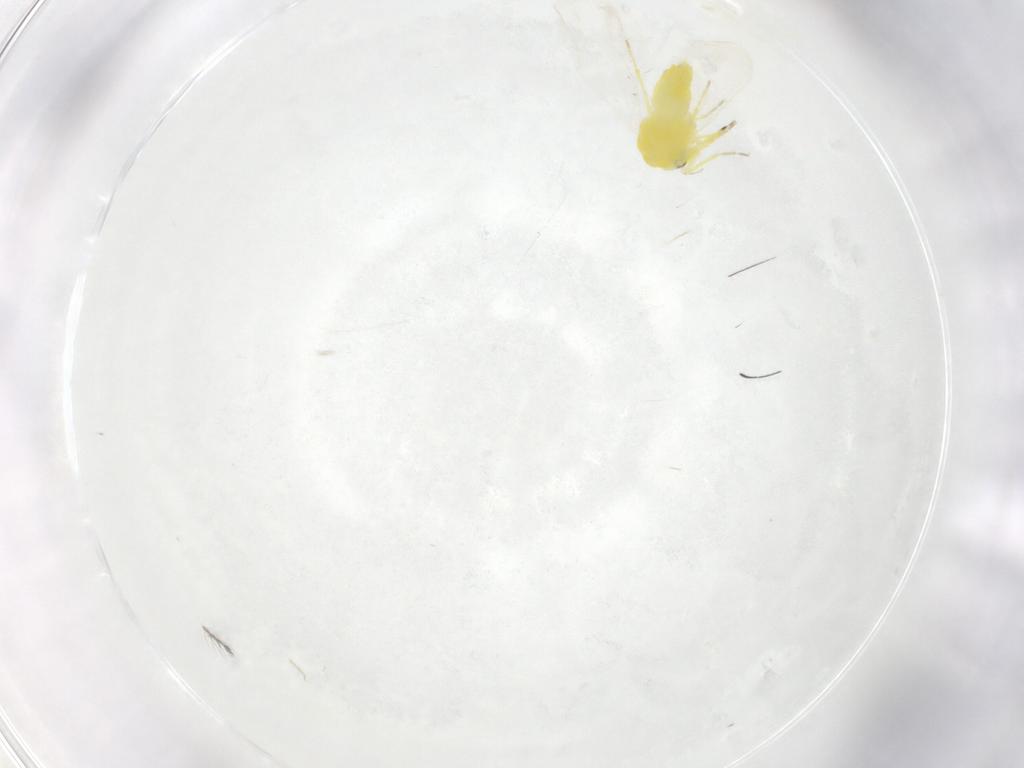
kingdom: Animalia
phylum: Arthropoda
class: Insecta
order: Hemiptera
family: Aleyrodidae
